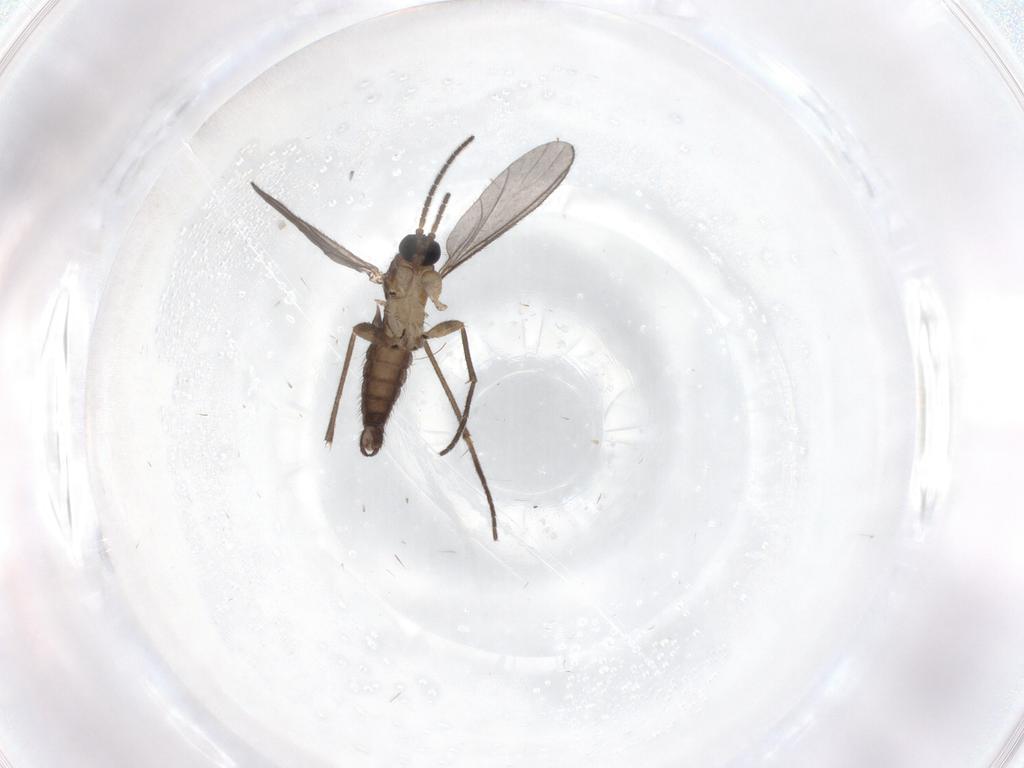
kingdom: Animalia
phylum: Arthropoda
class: Insecta
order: Diptera
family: Sciaridae
